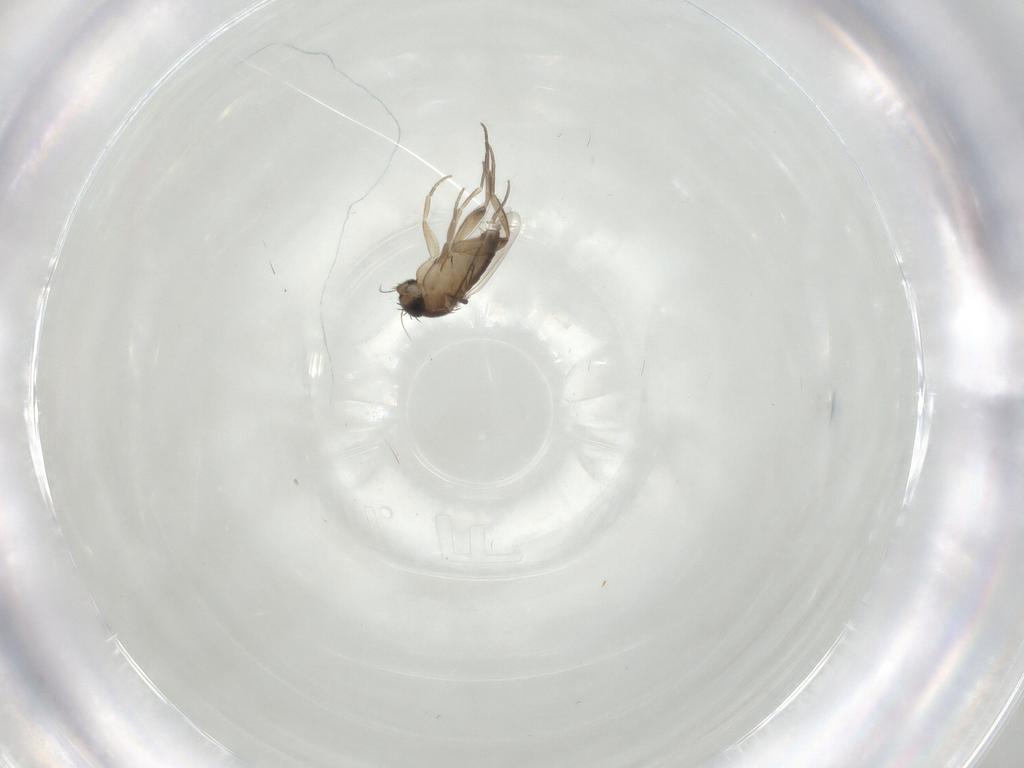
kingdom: Animalia
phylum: Arthropoda
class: Insecta
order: Diptera
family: Phoridae
